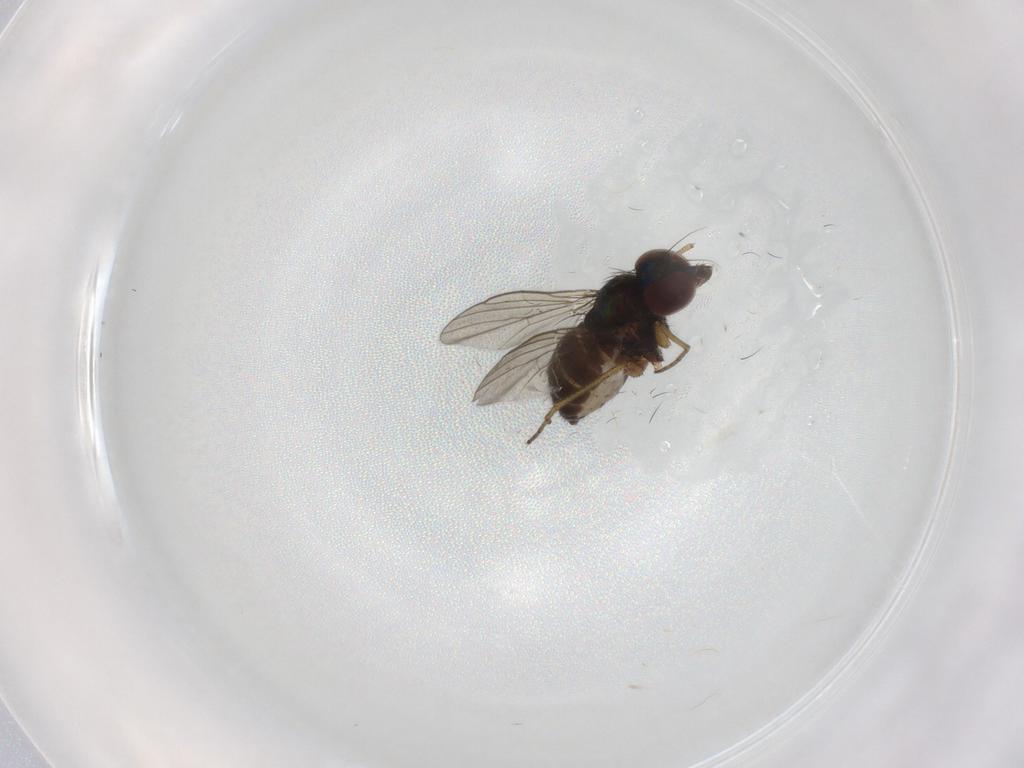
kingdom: Animalia
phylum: Arthropoda
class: Insecta
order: Diptera
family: Dolichopodidae
